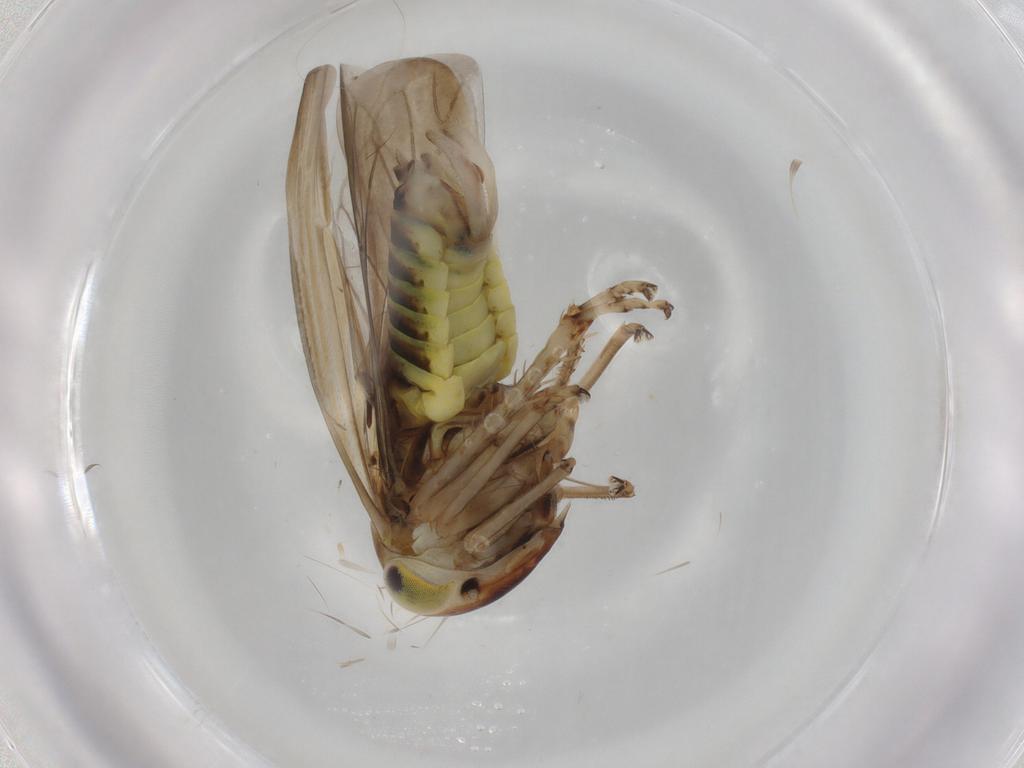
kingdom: Animalia
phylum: Arthropoda
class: Insecta
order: Hemiptera
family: Cicadellidae
